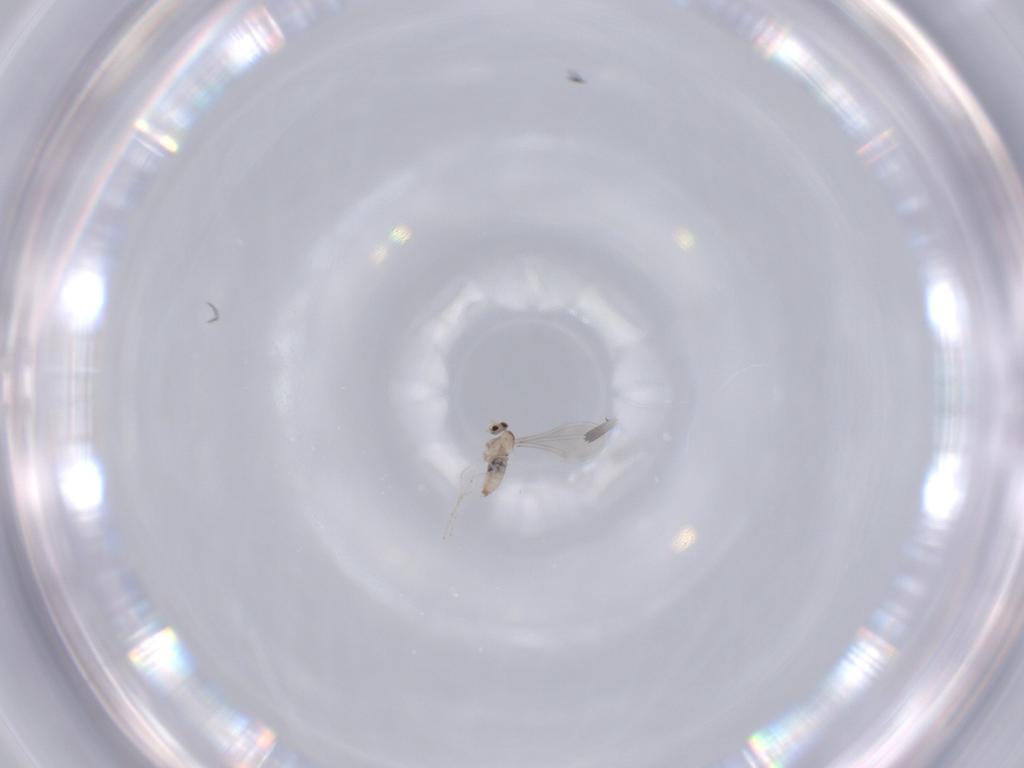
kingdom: Animalia
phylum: Arthropoda
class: Insecta
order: Diptera
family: Cecidomyiidae
